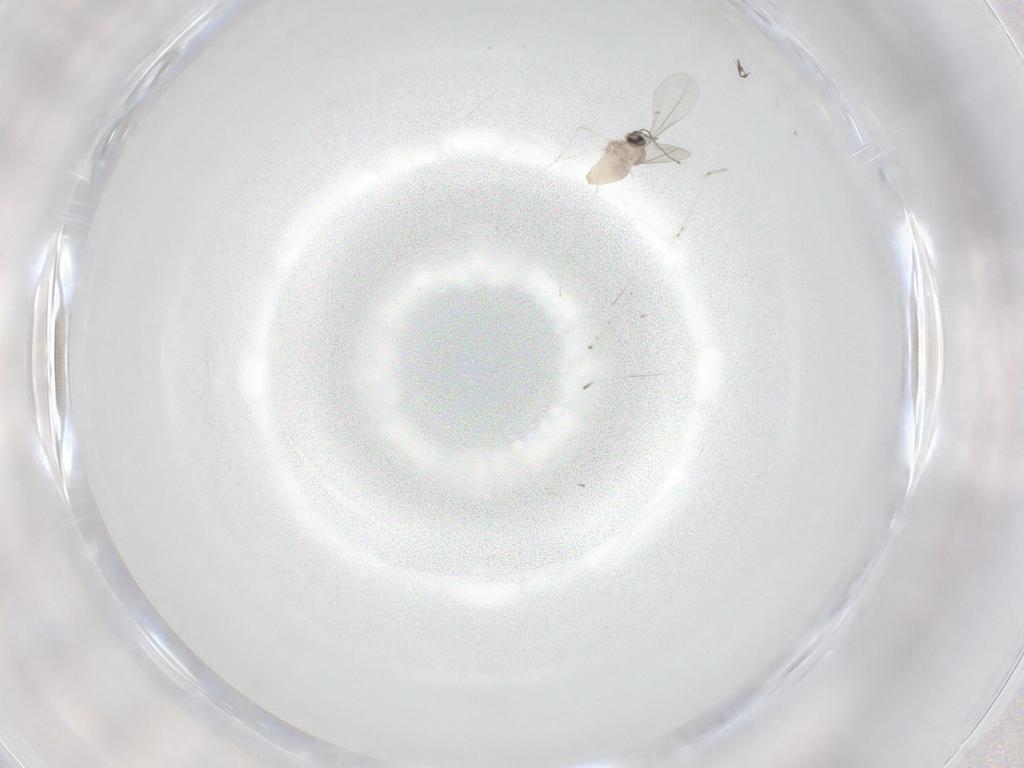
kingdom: Animalia
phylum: Arthropoda
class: Insecta
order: Diptera
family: Cecidomyiidae
